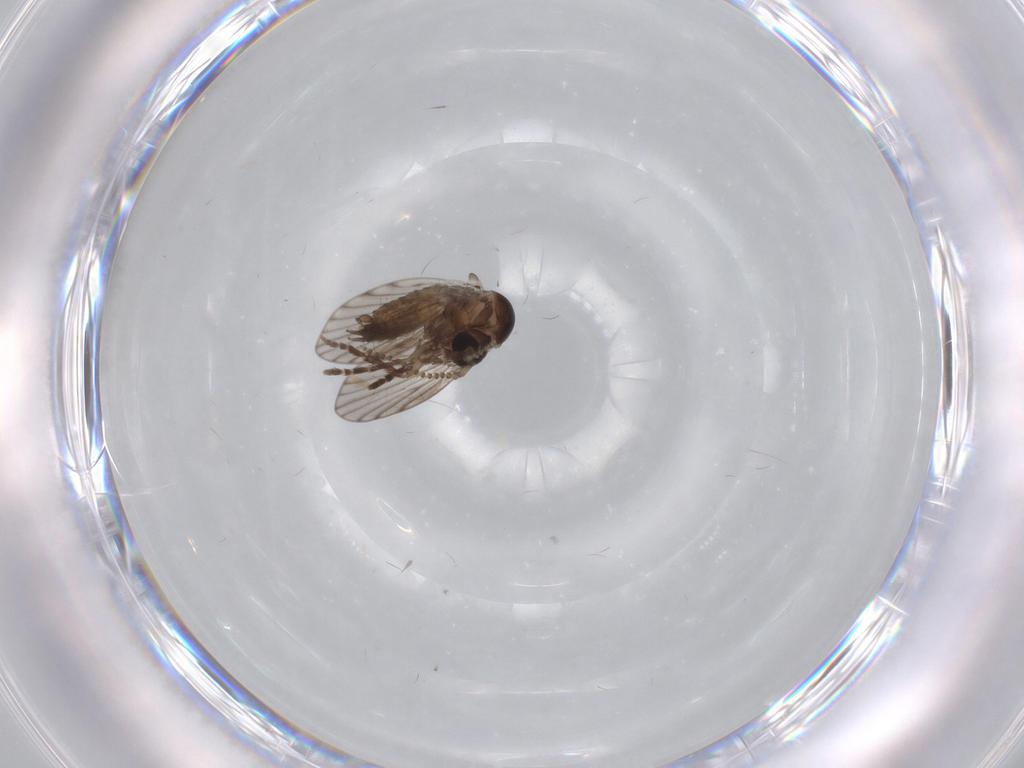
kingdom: Animalia
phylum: Arthropoda
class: Insecta
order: Diptera
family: Psychodidae
